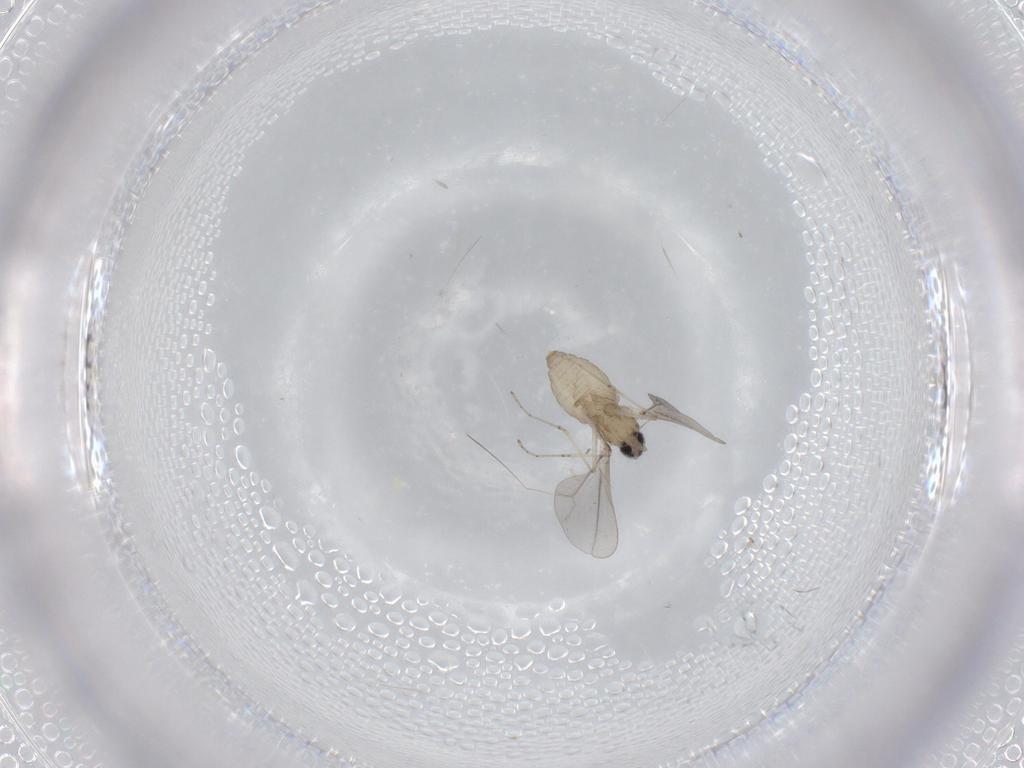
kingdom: Animalia
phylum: Arthropoda
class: Insecta
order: Diptera
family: Cecidomyiidae
